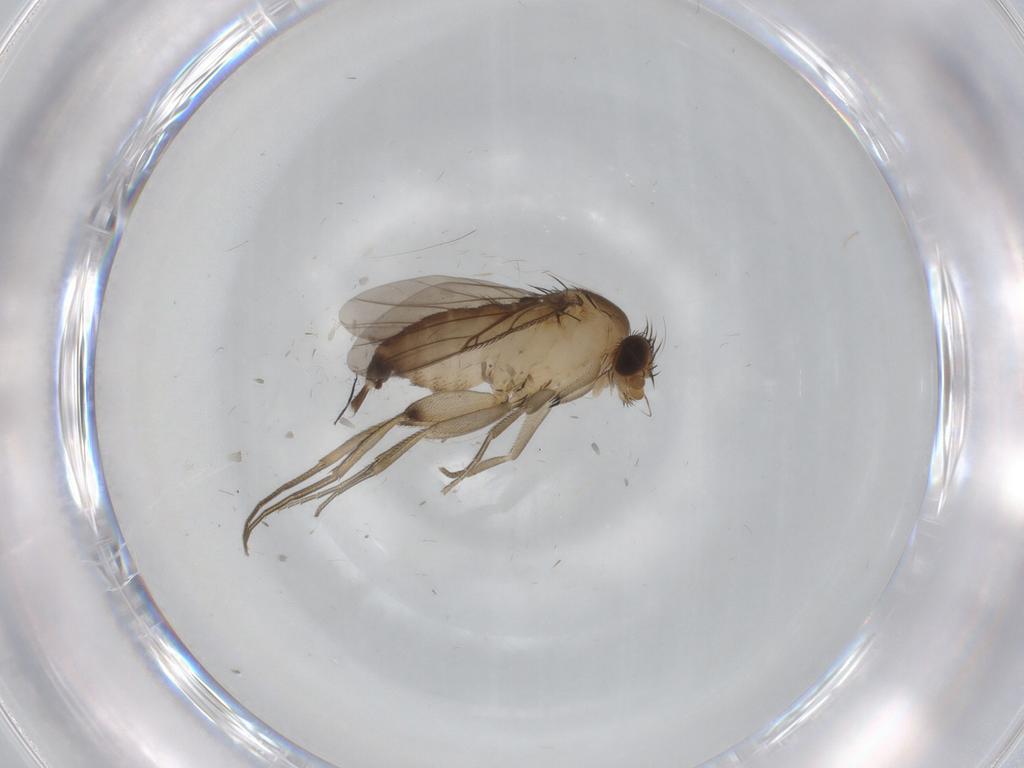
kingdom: Animalia
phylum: Arthropoda
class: Insecta
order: Diptera
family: Phoridae
